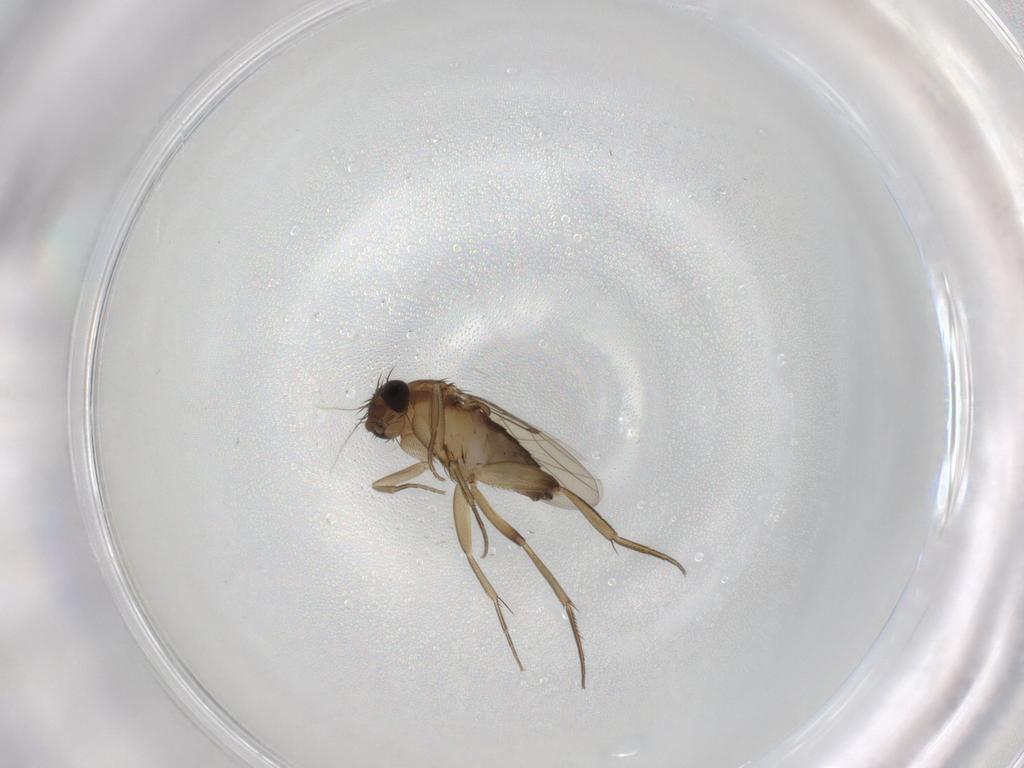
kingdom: Animalia
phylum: Arthropoda
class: Insecta
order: Diptera
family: Phoridae
